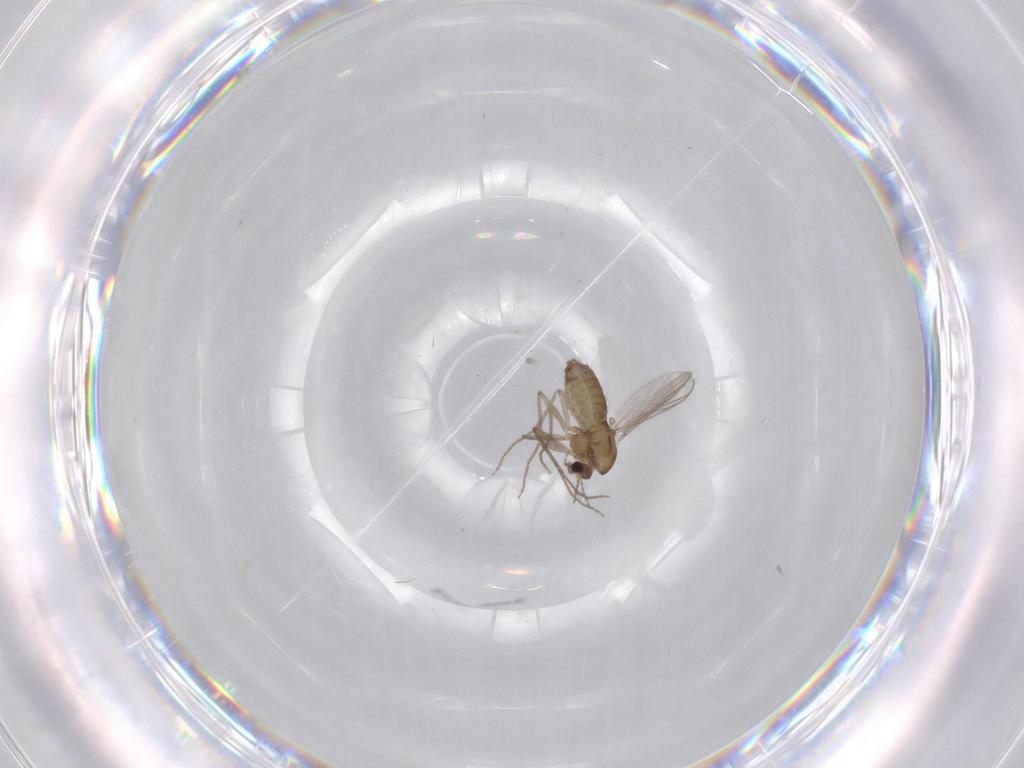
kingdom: Animalia
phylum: Arthropoda
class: Insecta
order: Diptera
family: Chironomidae
